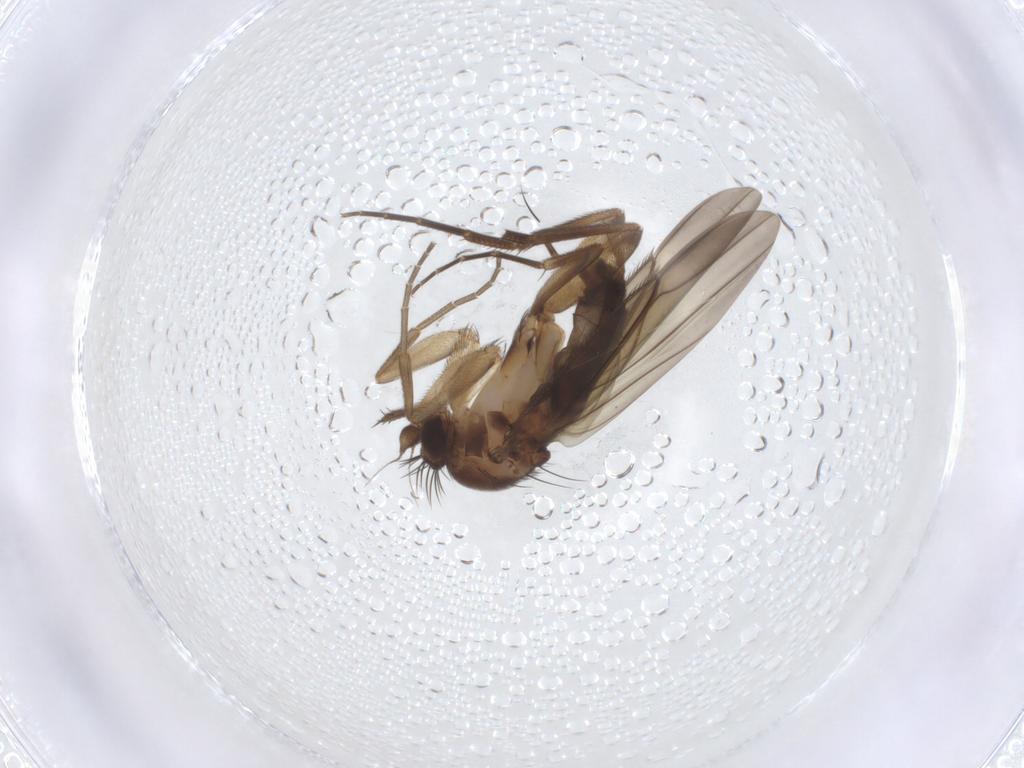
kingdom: Animalia
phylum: Arthropoda
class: Insecta
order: Diptera
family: Phoridae
